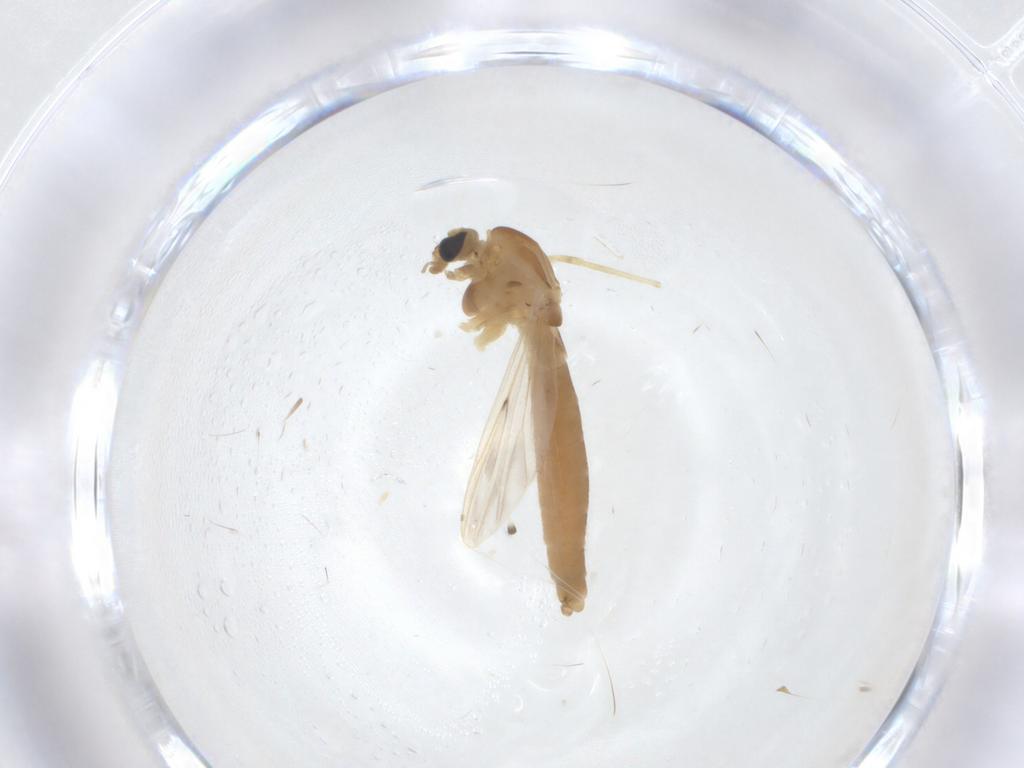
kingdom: Animalia
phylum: Arthropoda
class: Insecta
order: Diptera
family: Chironomidae
